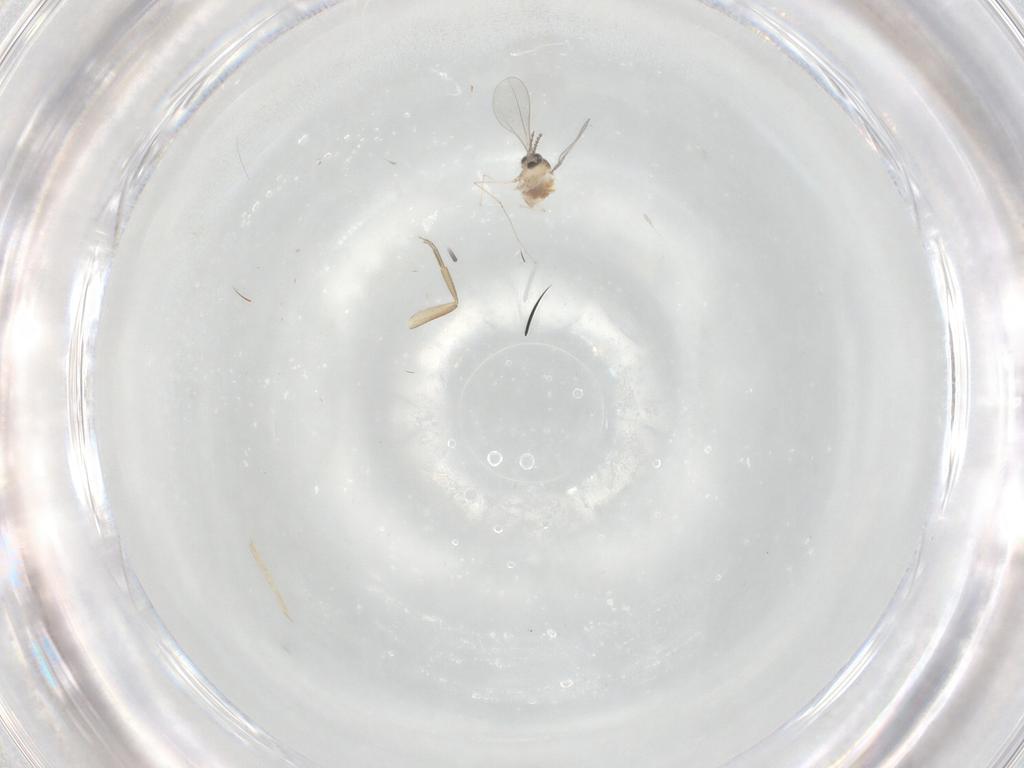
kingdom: Animalia
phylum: Arthropoda
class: Insecta
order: Diptera
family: Cecidomyiidae
